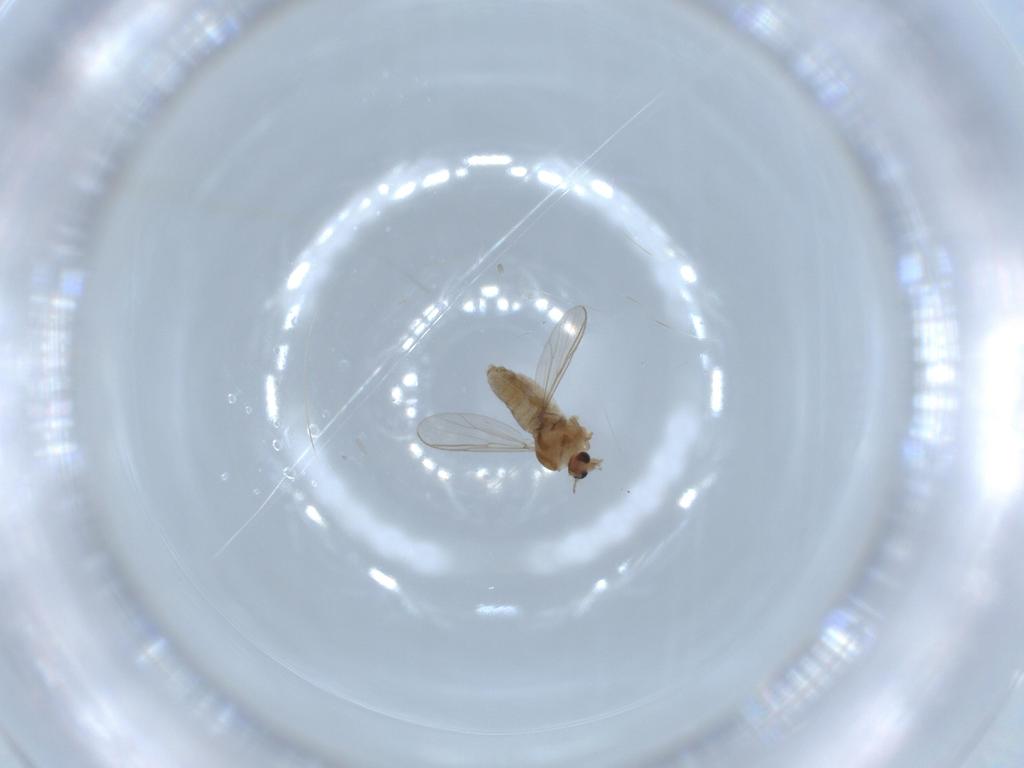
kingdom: Animalia
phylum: Arthropoda
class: Insecta
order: Diptera
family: Chironomidae
